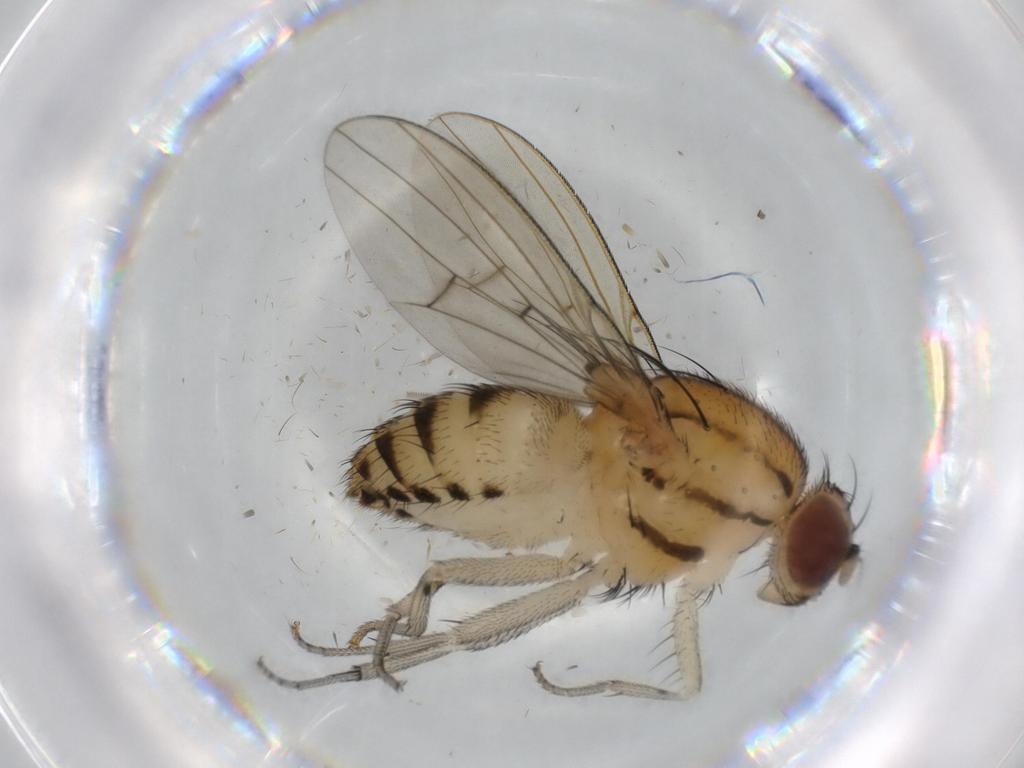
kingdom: Animalia
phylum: Arthropoda
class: Insecta
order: Diptera
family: Lauxaniidae
